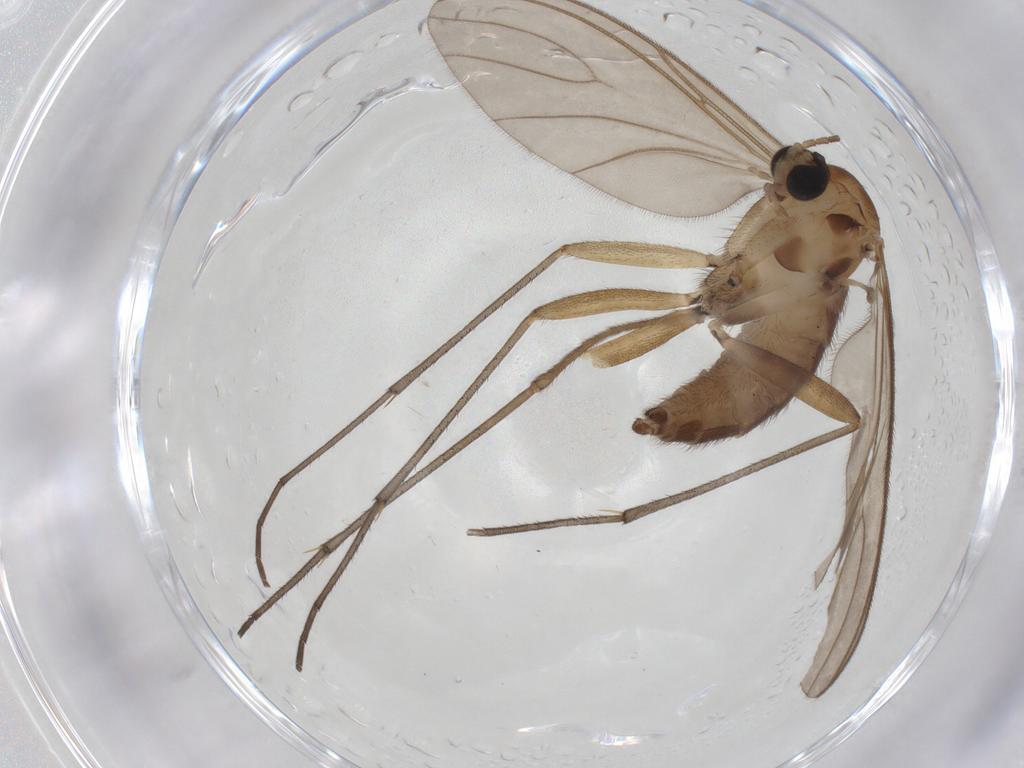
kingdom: Animalia
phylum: Arthropoda
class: Insecta
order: Diptera
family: Sciaridae
